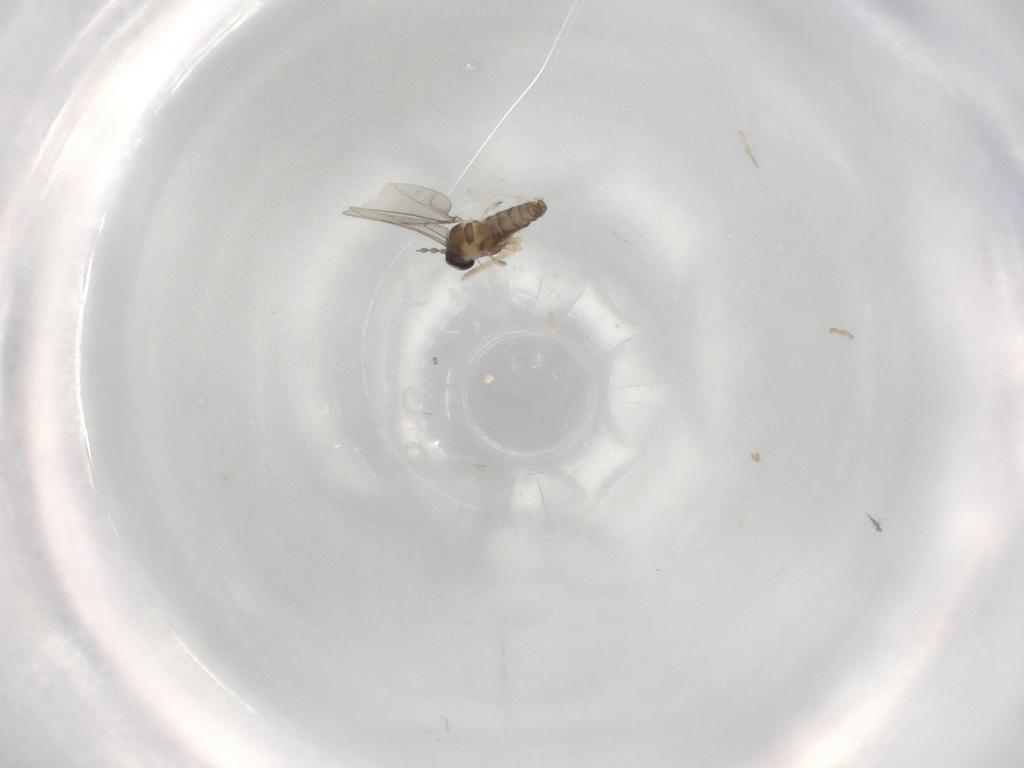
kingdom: Animalia
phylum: Arthropoda
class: Insecta
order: Diptera
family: Cecidomyiidae
